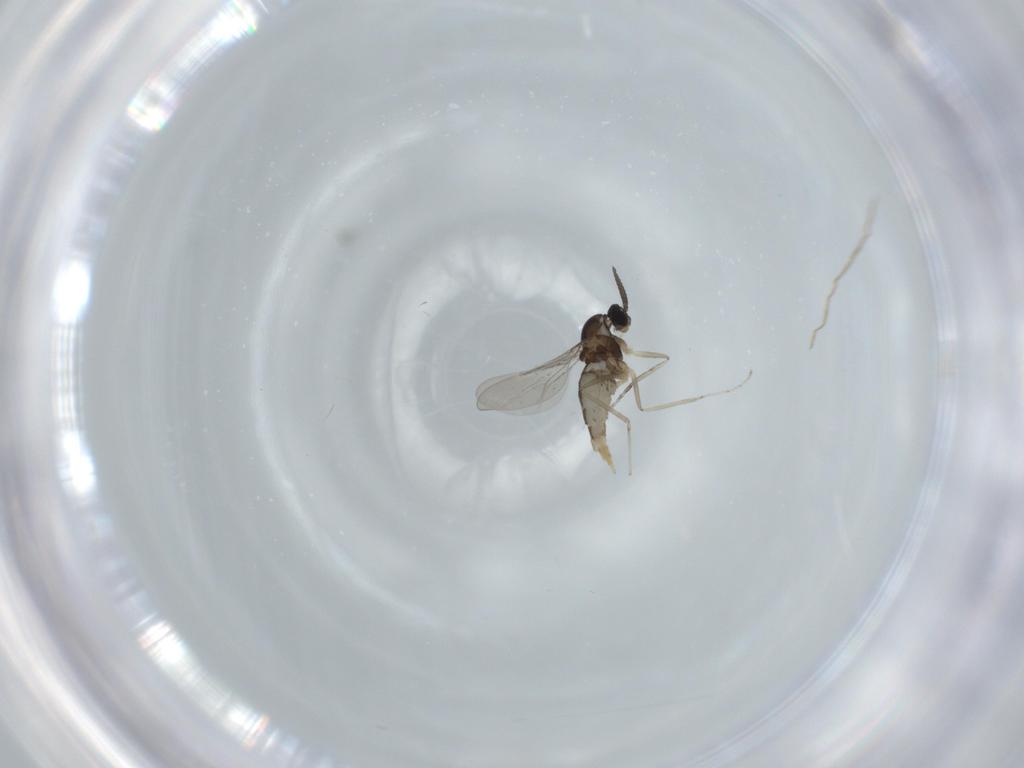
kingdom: Animalia
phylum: Arthropoda
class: Insecta
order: Diptera
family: Cecidomyiidae
